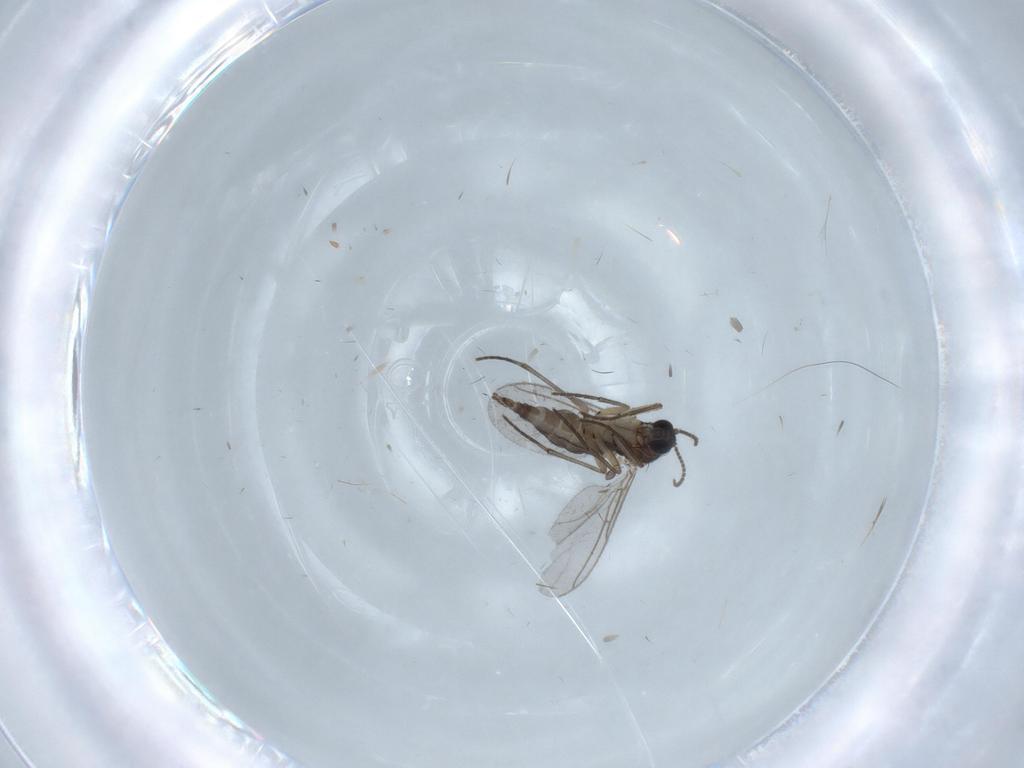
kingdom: Animalia
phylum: Arthropoda
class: Insecta
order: Diptera
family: Sciaridae
